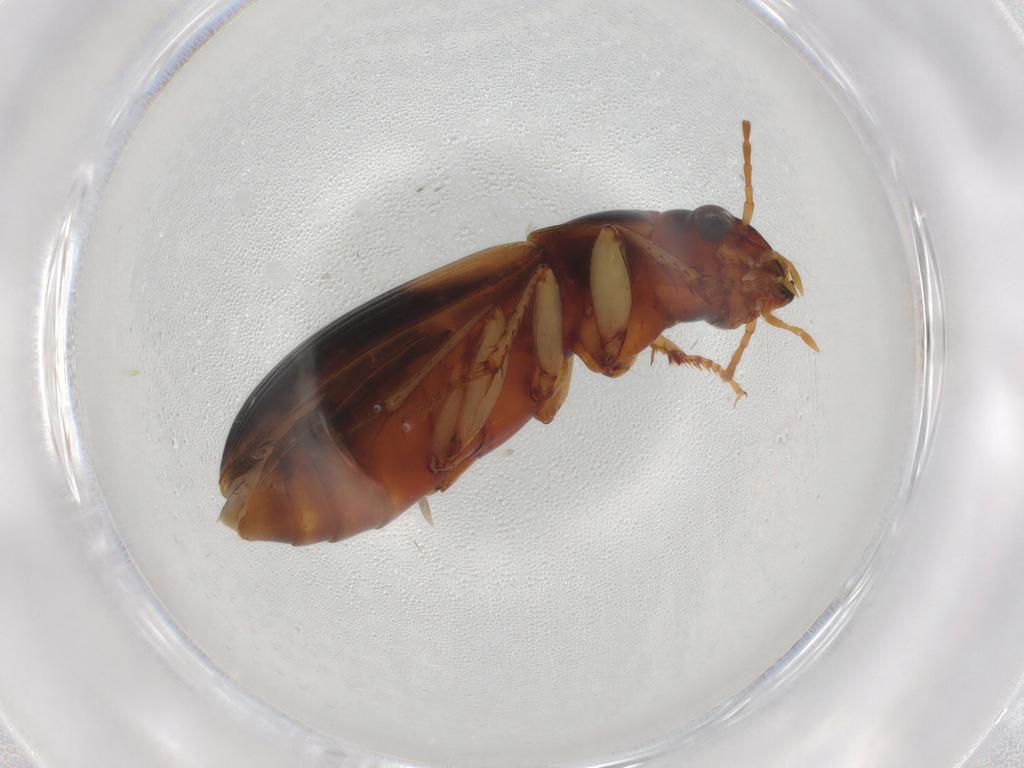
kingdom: Animalia
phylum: Arthropoda
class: Insecta
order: Coleoptera
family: Carabidae
